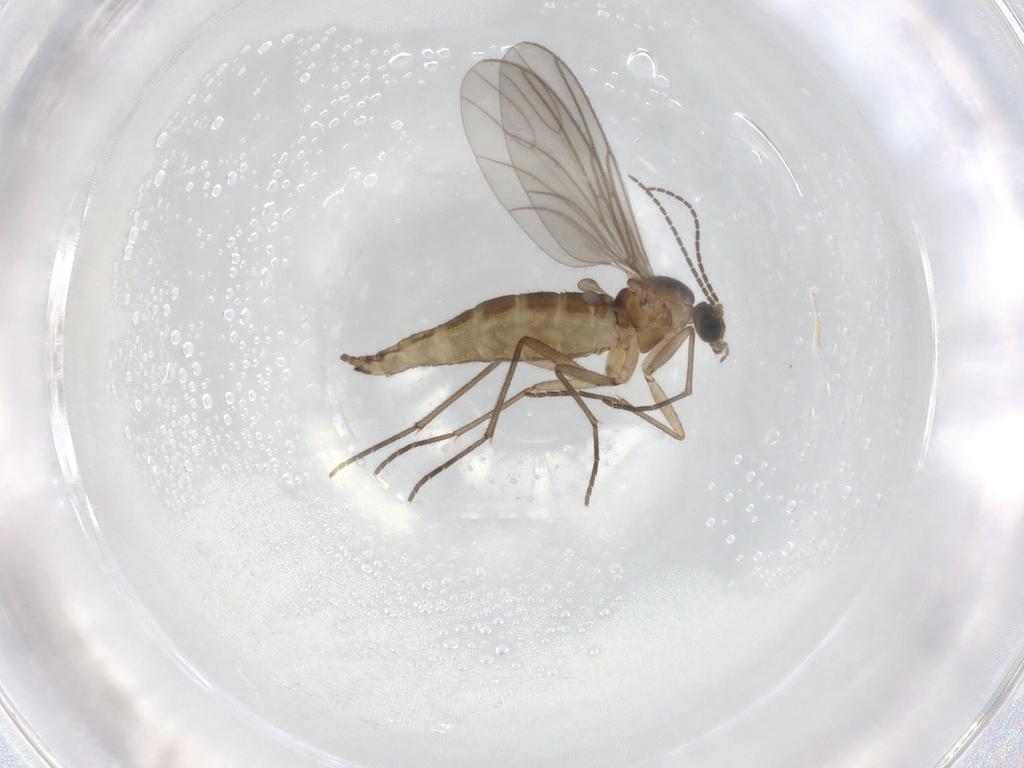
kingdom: Animalia
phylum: Arthropoda
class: Insecta
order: Diptera
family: Sciaridae
